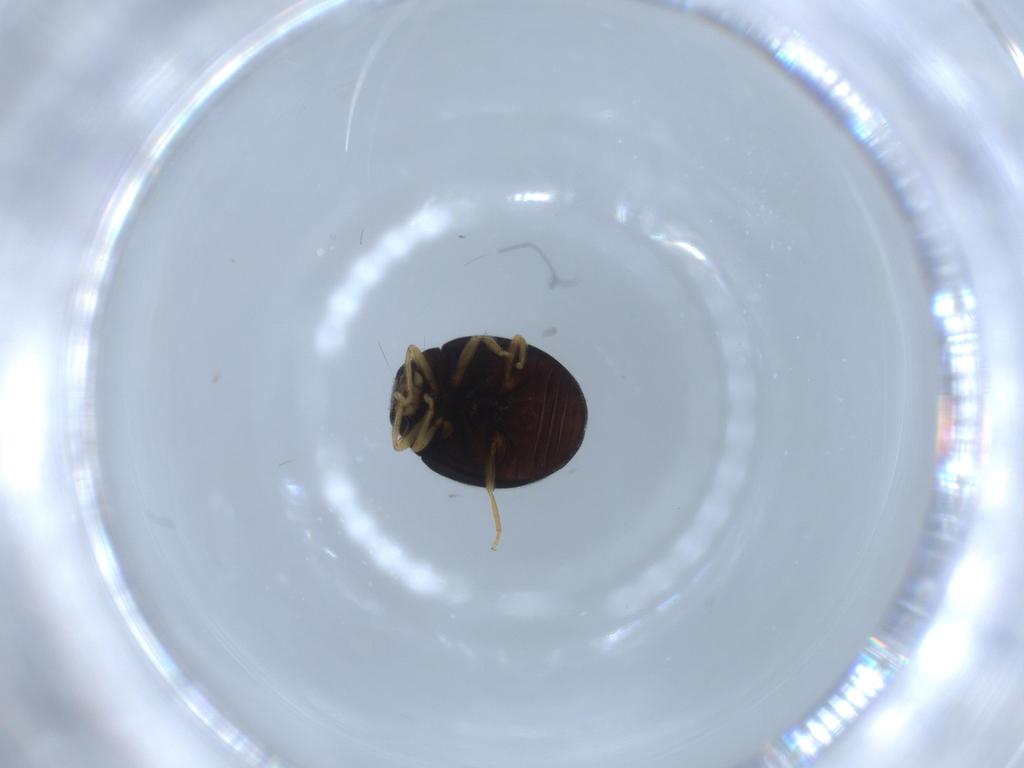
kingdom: Animalia
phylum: Arthropoda
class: Insecta
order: Coleoptera
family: Coccinellidae
